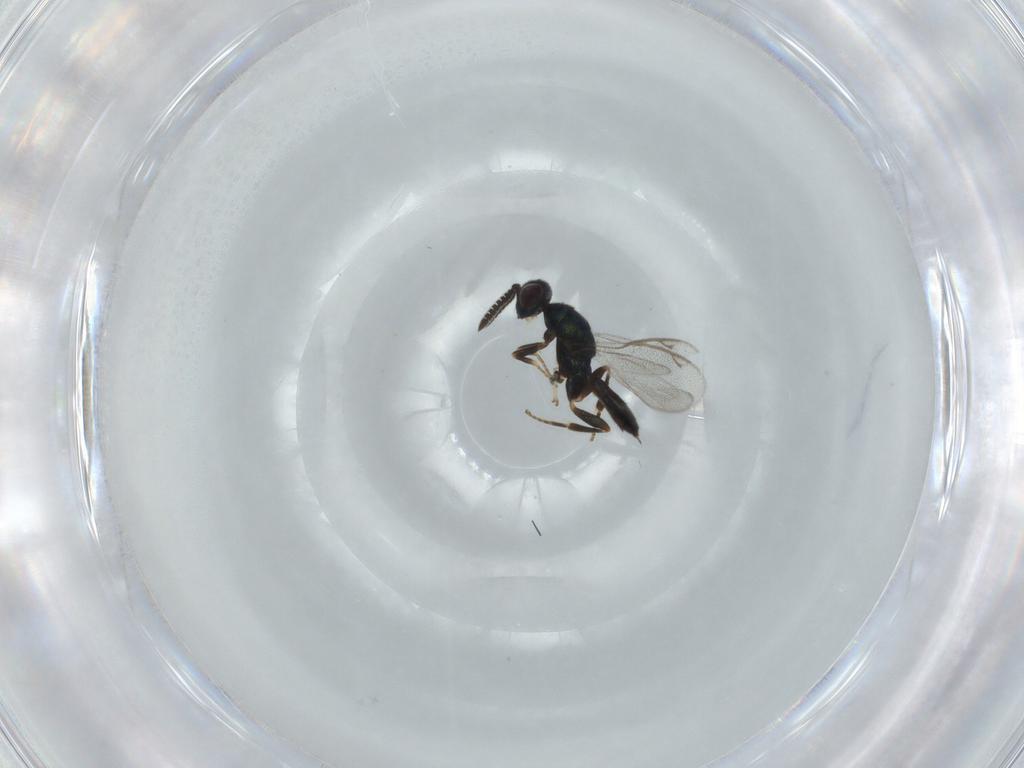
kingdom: Animalia
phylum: Arthropoda
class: Insecta
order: Hymenoptera
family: Cleonyminae
